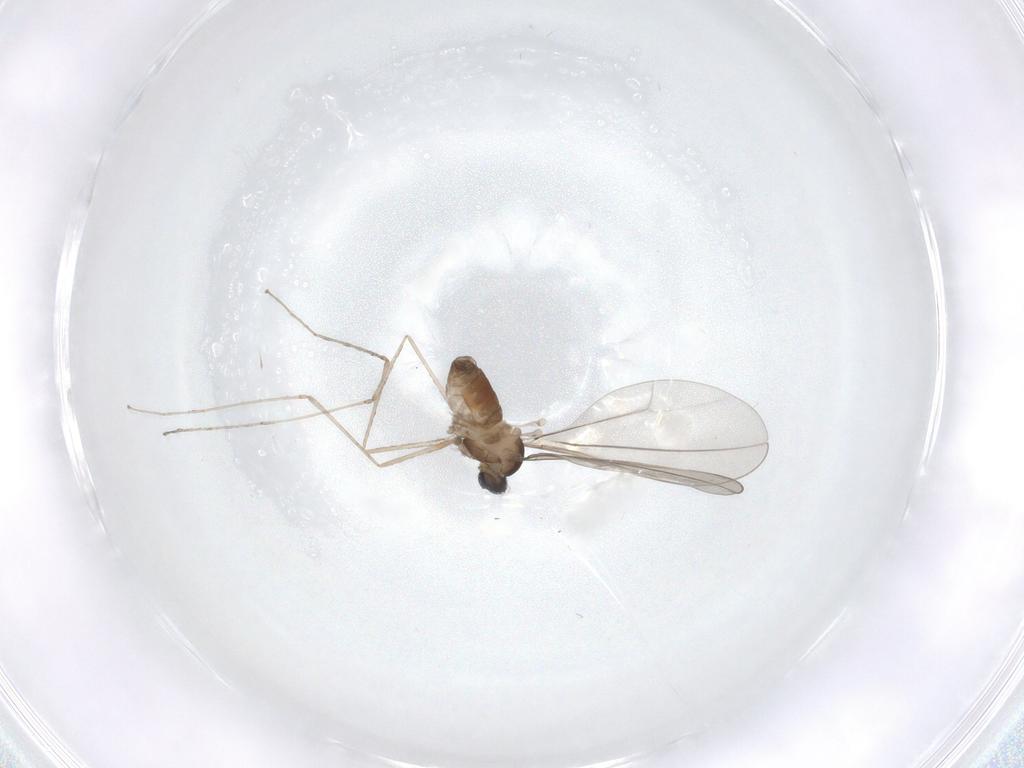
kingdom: Animalia
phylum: Arthropoda
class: Insecta
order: Diptera
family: Phoridae
